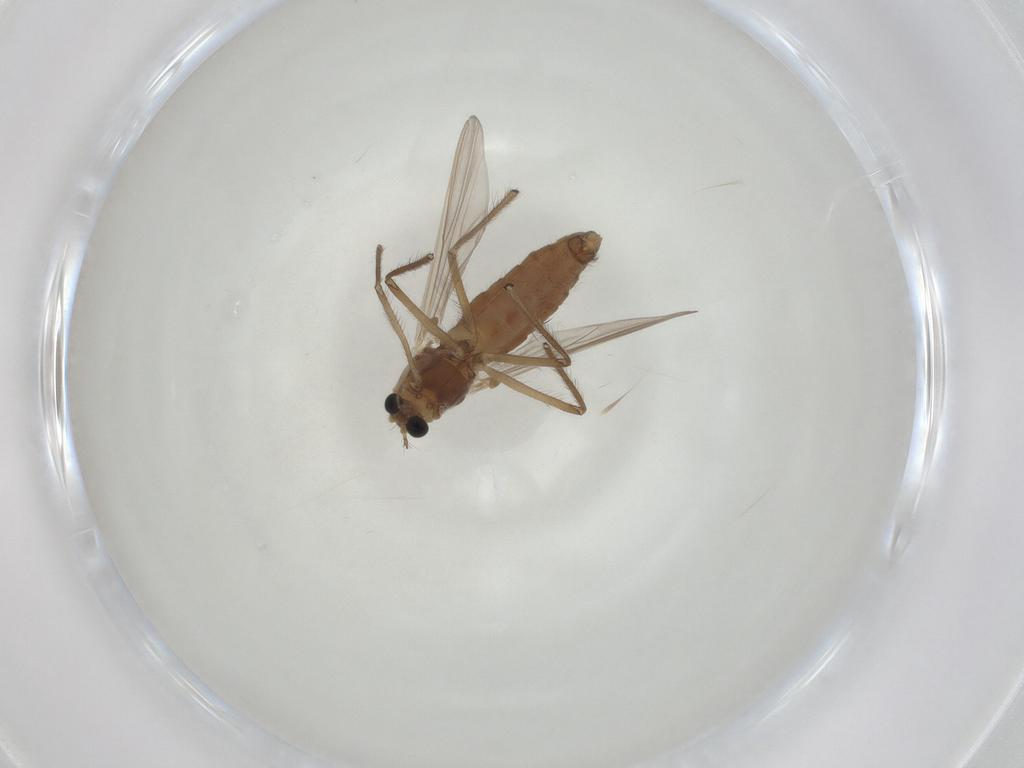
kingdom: Animalia
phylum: Arthropoda
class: Insecta
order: Diptera
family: Chironomidae
